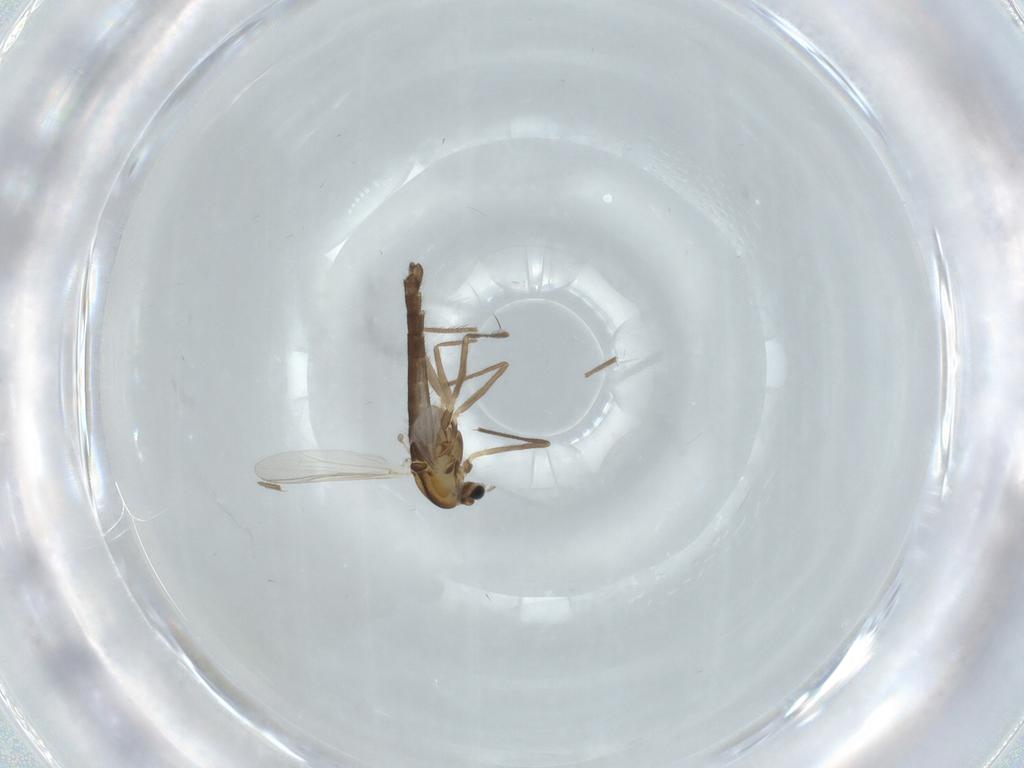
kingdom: Animalia
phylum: Arthropoda
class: Insecta
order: Diptera
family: Chironomidae
